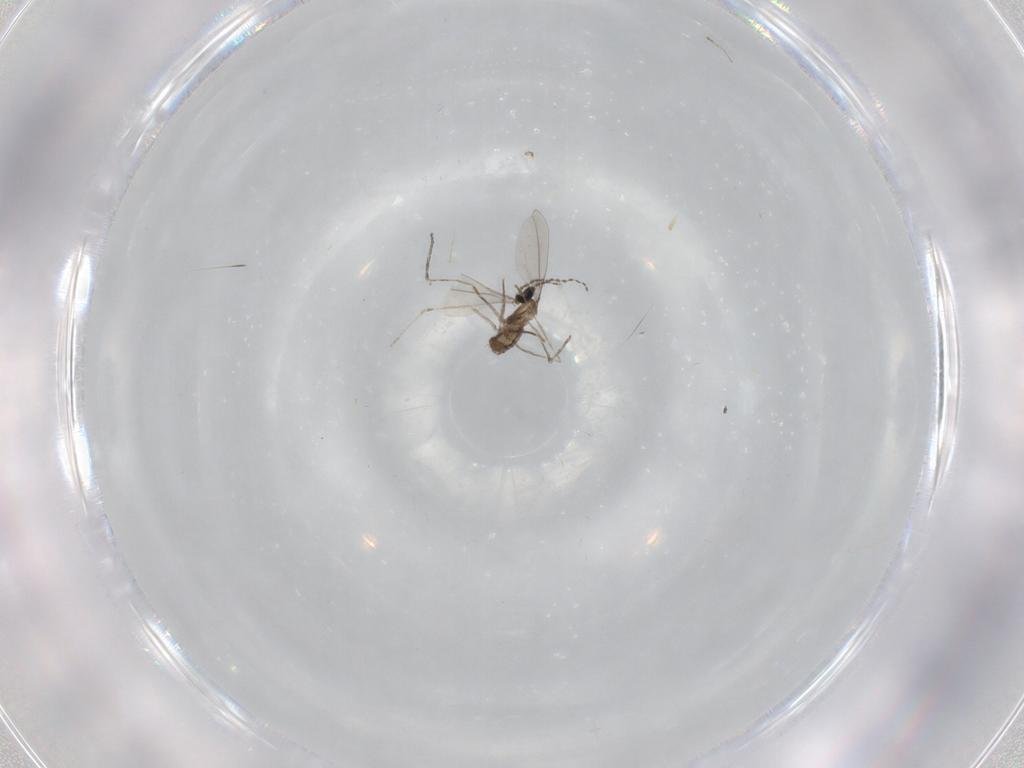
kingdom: Animalia
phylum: Arthropoda
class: Insecta
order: Diptera
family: Cecidomyiidae
